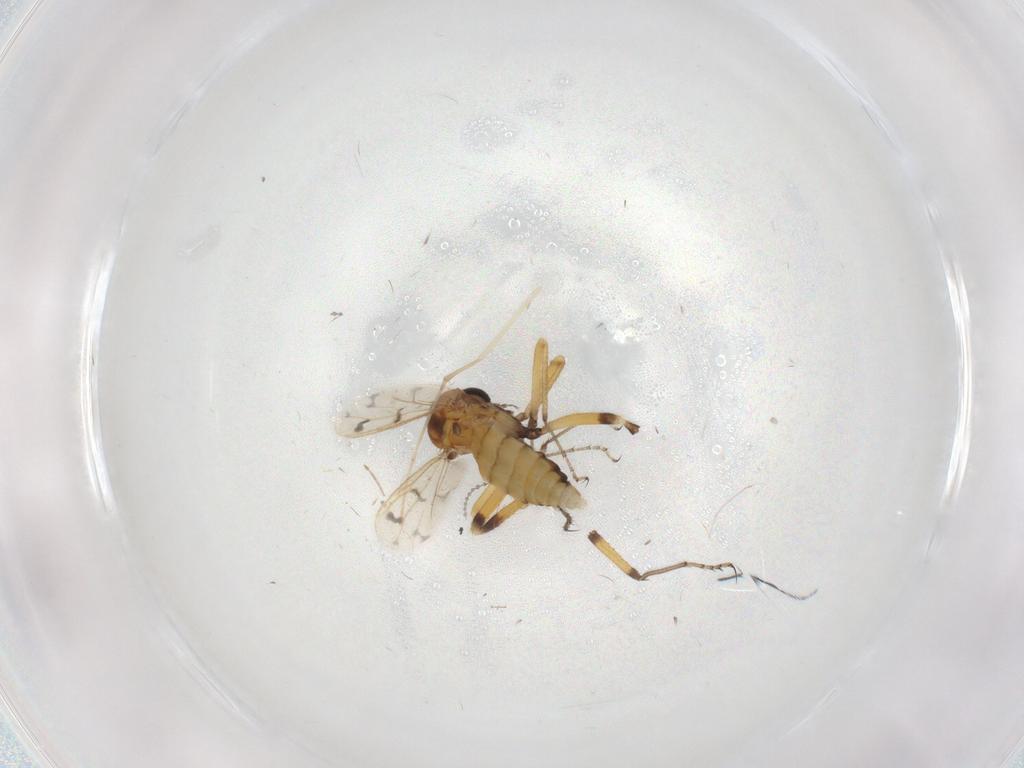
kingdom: Animalia
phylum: Arthropoda
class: Insecta
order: Diptera
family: Ceratopogonidae
